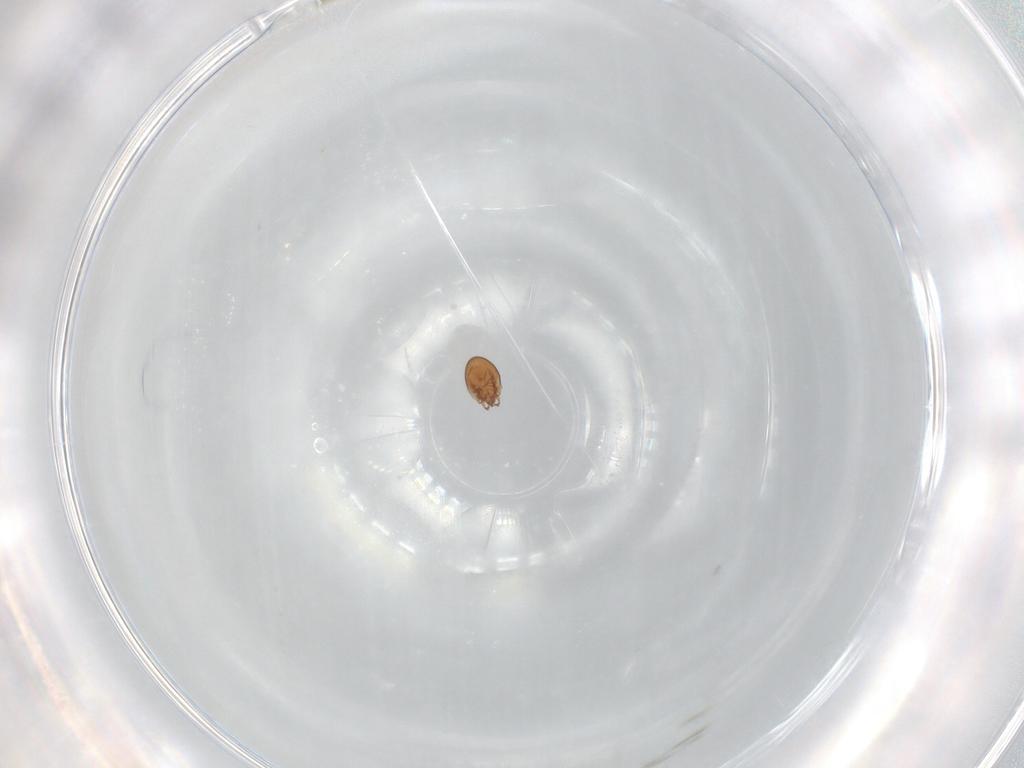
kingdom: Animalia
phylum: Arthropoda
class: Arachnida
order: Sarcoptiformes
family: Scheloribatidae
